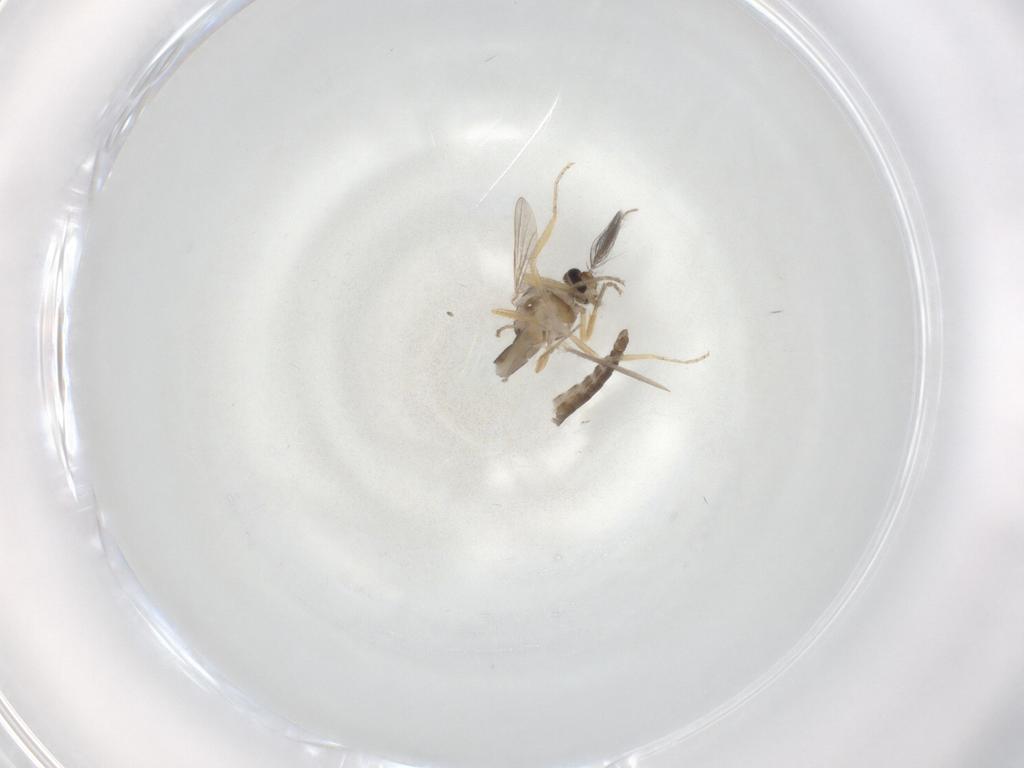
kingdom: Animalia
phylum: Arthropoda
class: Insecta
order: Diptera
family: Ceratopogonidae
